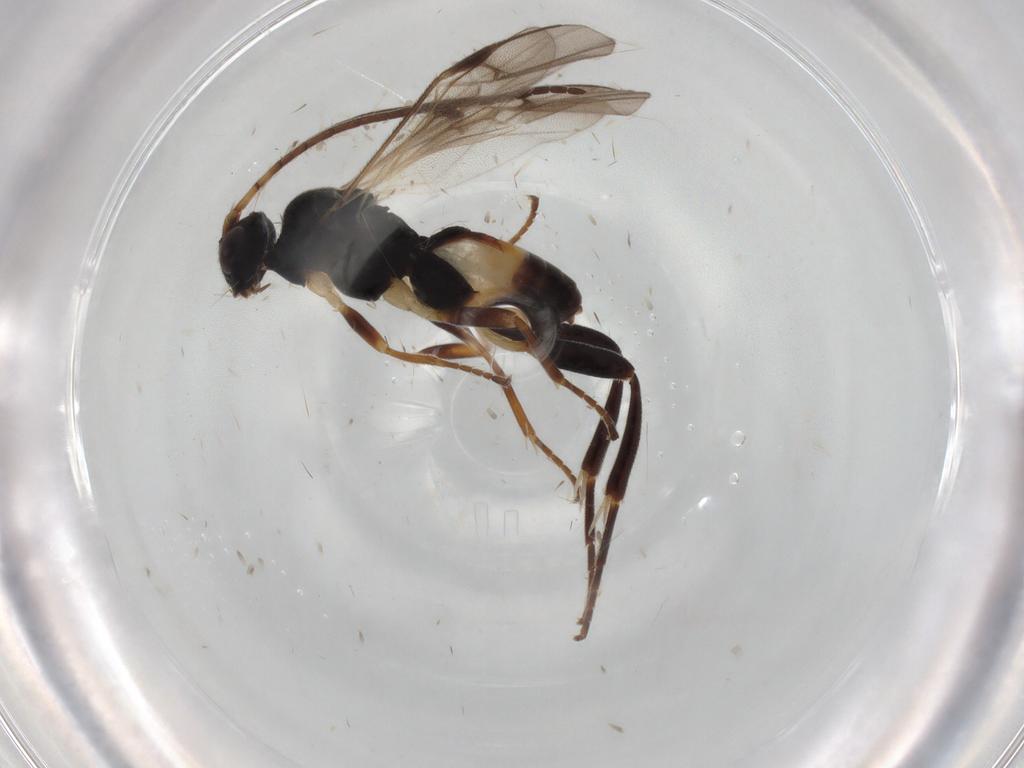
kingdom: Animalia
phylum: Arthropoda
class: Insecta
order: Hymenoptera
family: Braconidae
